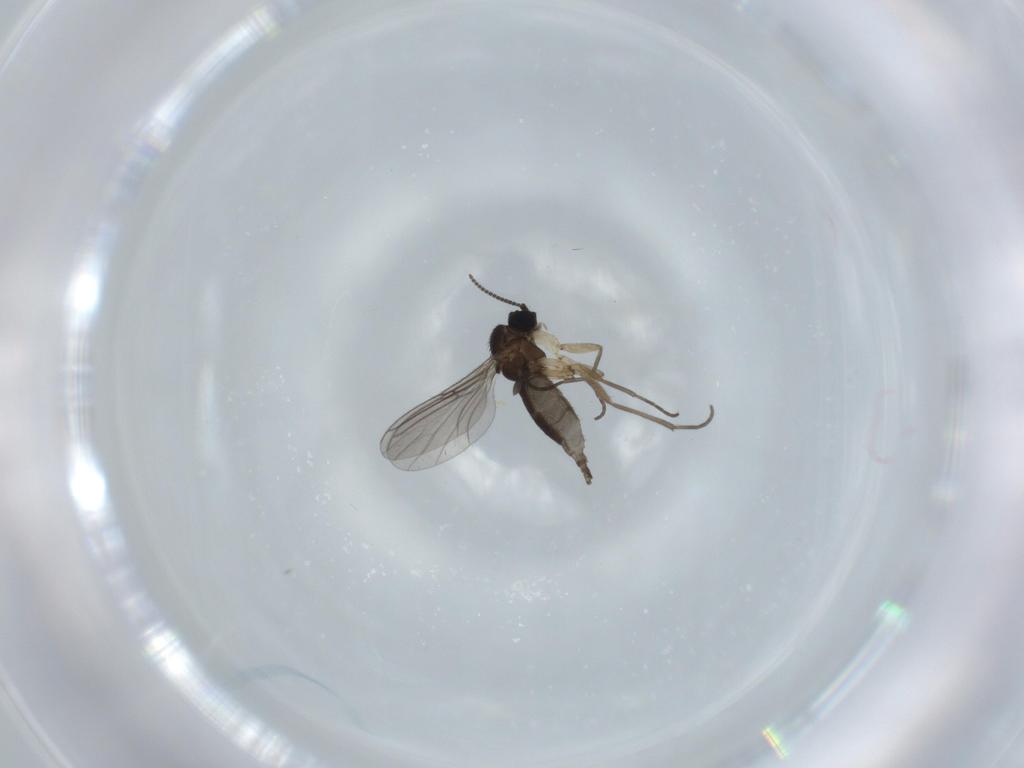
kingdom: Animalia
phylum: Arthropoda
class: Insecta
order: Diptera
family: Sciaridae
